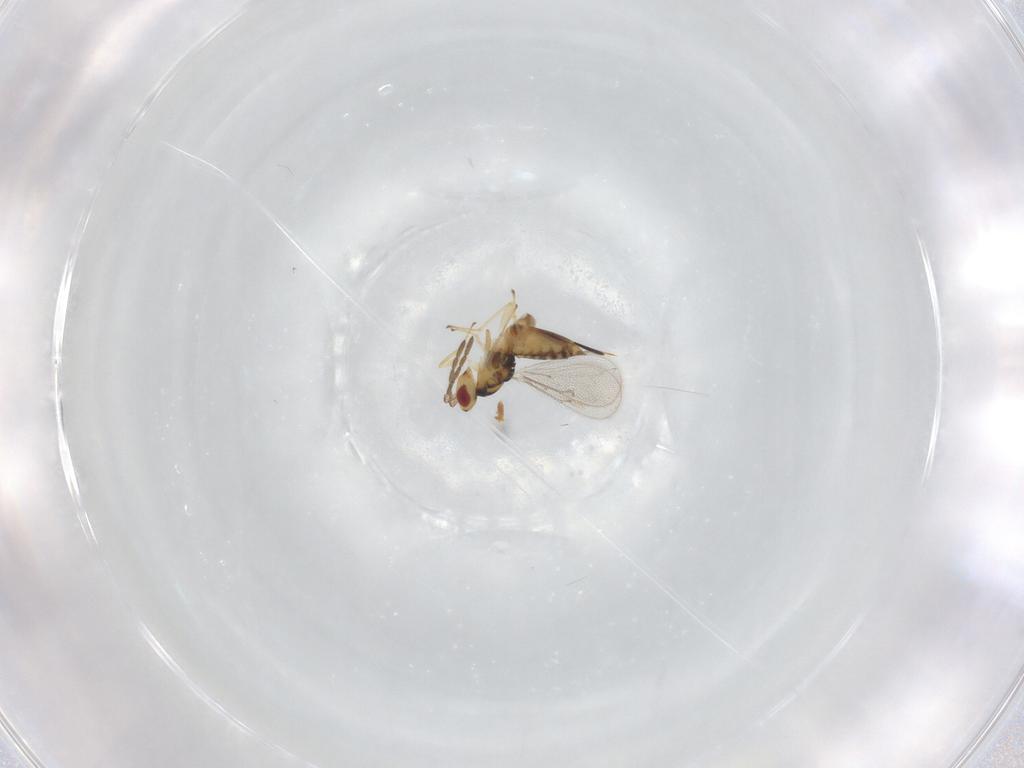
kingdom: Animalia
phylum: Arthropoda
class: Insecta
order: Hymenoptera
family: Eulophidae
